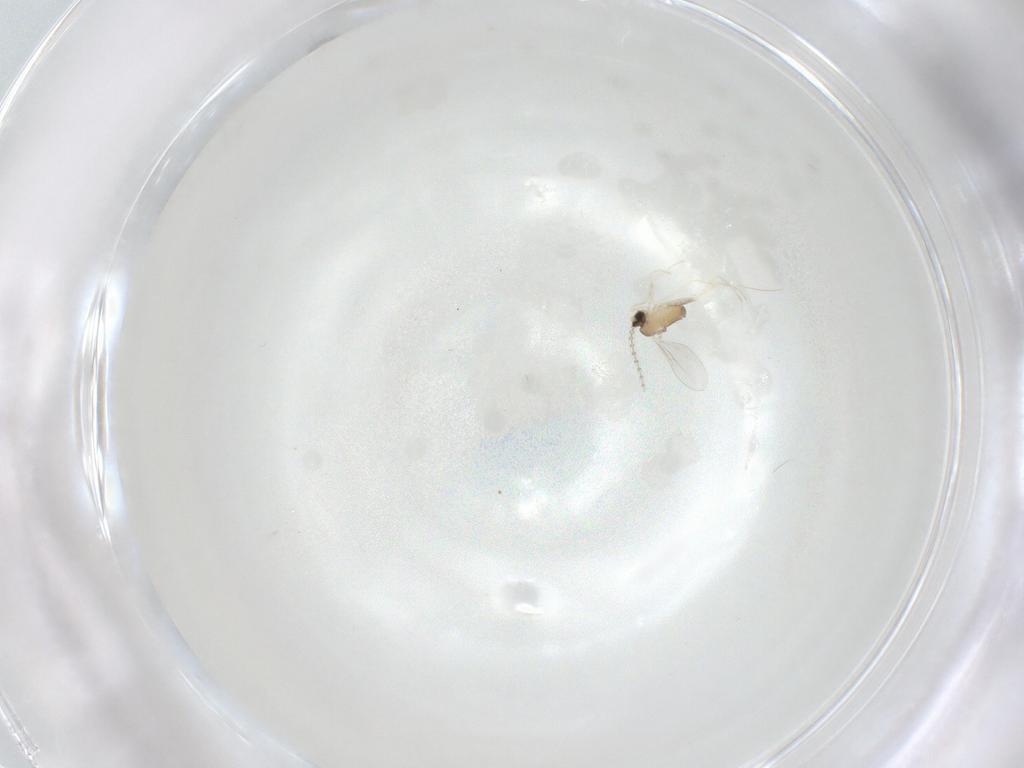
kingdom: Animalia
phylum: Arthropoda
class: Insecta
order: Diptera
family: Cecidomyiidae
